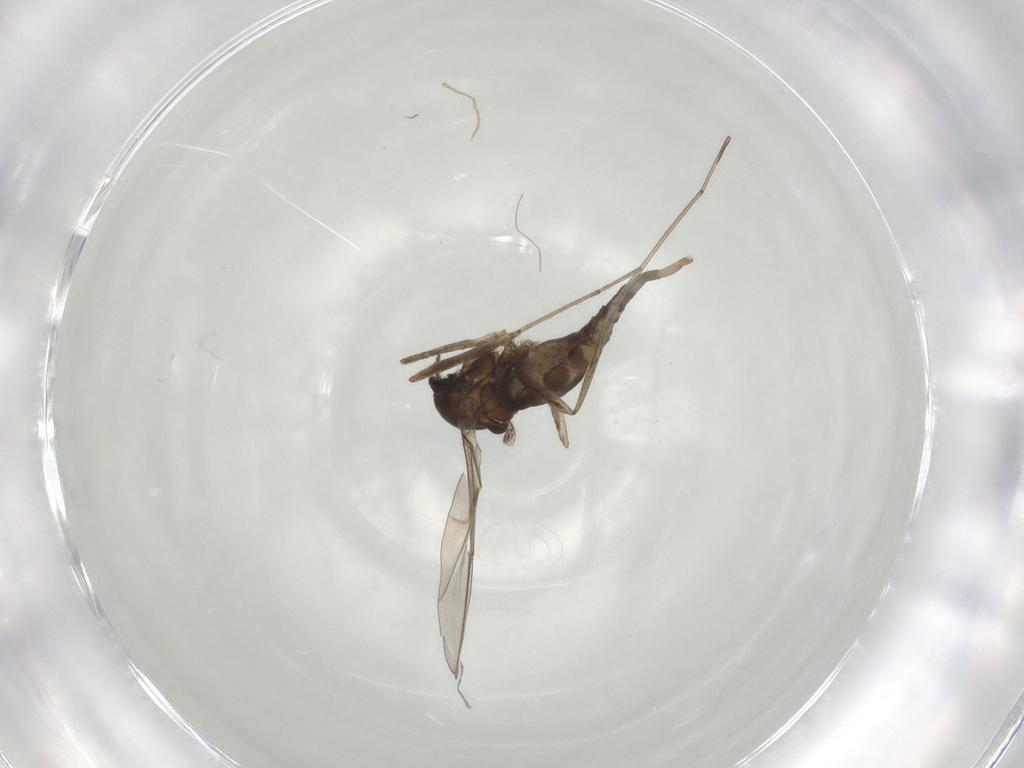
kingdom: Animalia
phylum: Arthropoda
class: Insecta
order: Diptera
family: Cecidomyiidae
